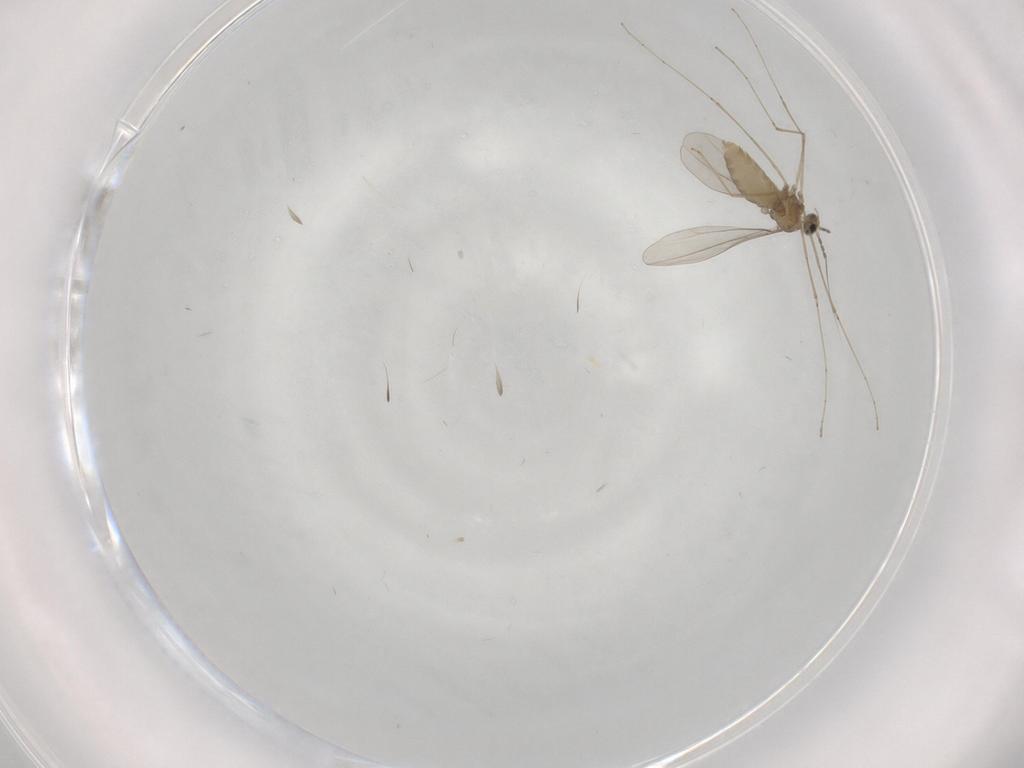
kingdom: Animalia
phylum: Arthropoda
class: Insecta
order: Diptera
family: Cecidomyiidae
